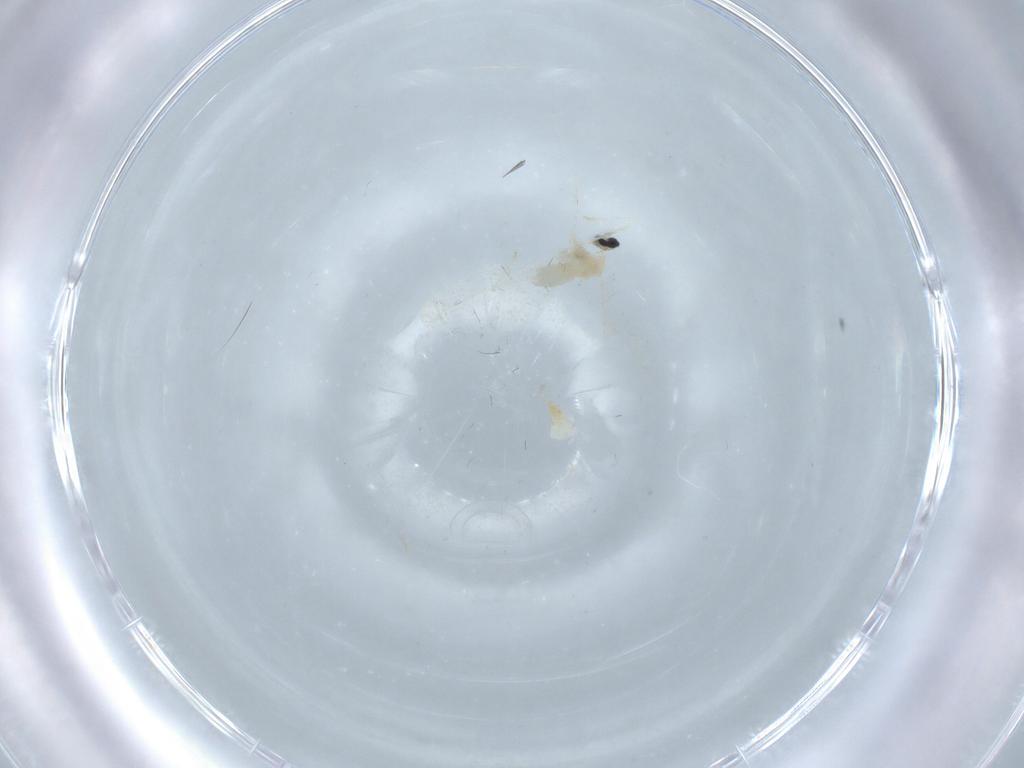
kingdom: Animalia
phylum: Arthropoda
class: Insecta
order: Diptera
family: Cecidomyiidae
